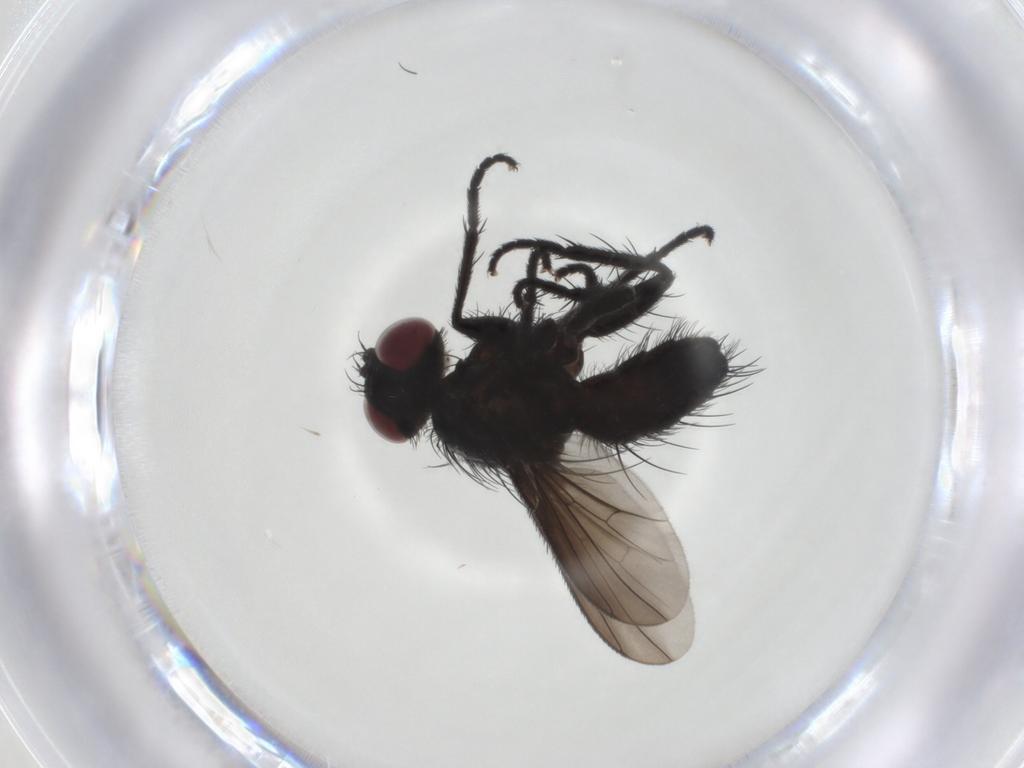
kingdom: Animalia
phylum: Arthropoda
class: Insecta
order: Diptera
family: Tachinidae
